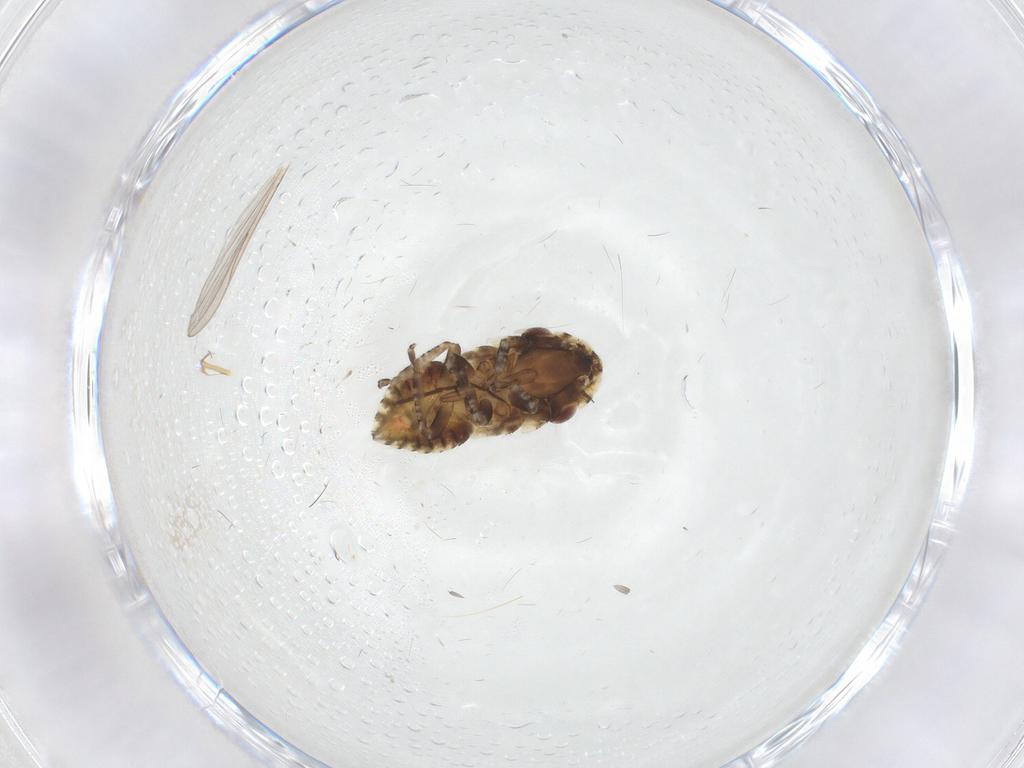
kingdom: Animalia
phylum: Arthropoda
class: Insecta
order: Hemiptera
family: Cicadellidae
